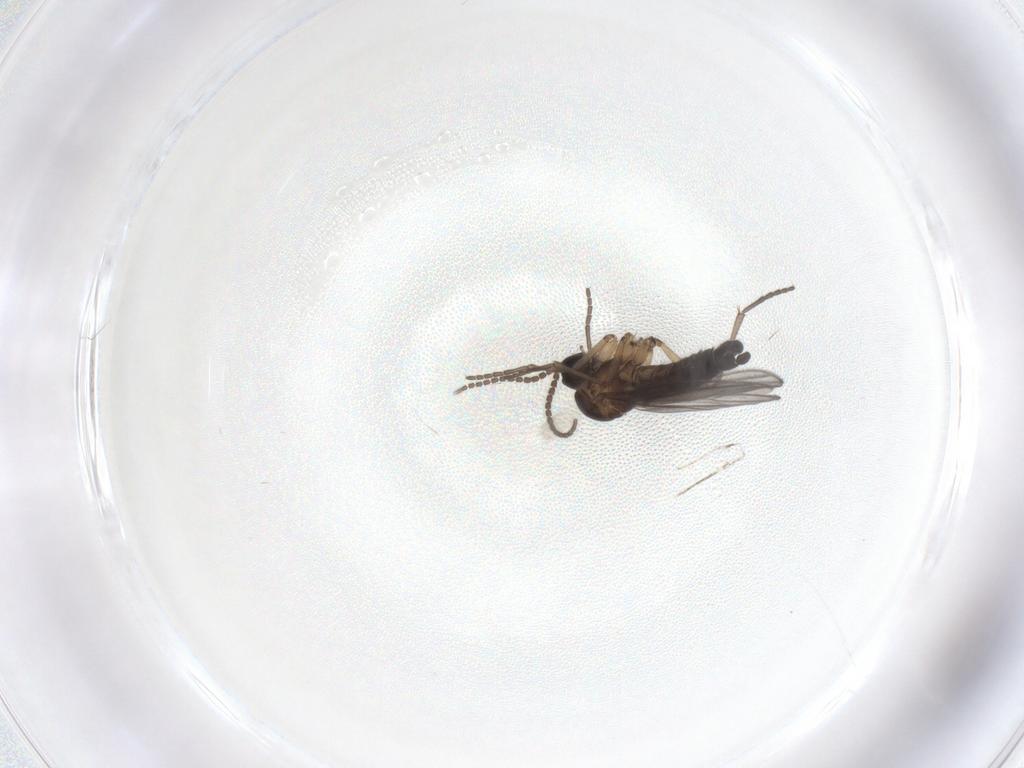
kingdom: Animalia
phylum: Arthropoda
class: Insecta
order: Diptera
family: Sciaridae
